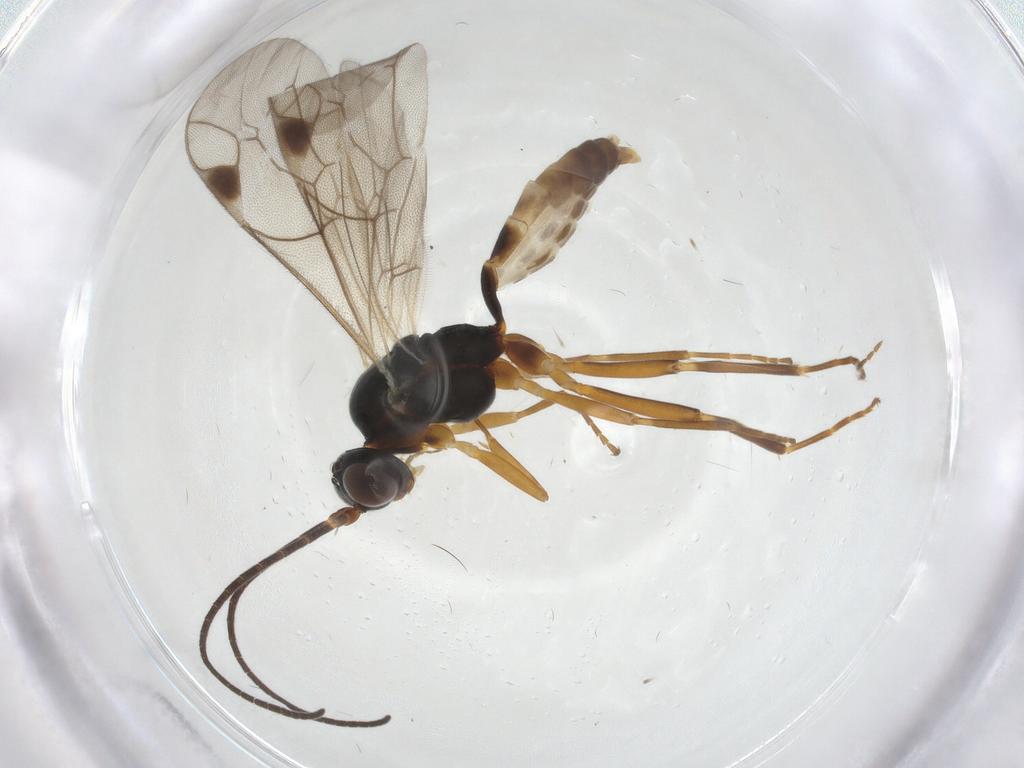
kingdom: Animalia
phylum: Arthropoda
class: Insecta
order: Hymenoptera
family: Ichneumonidae
